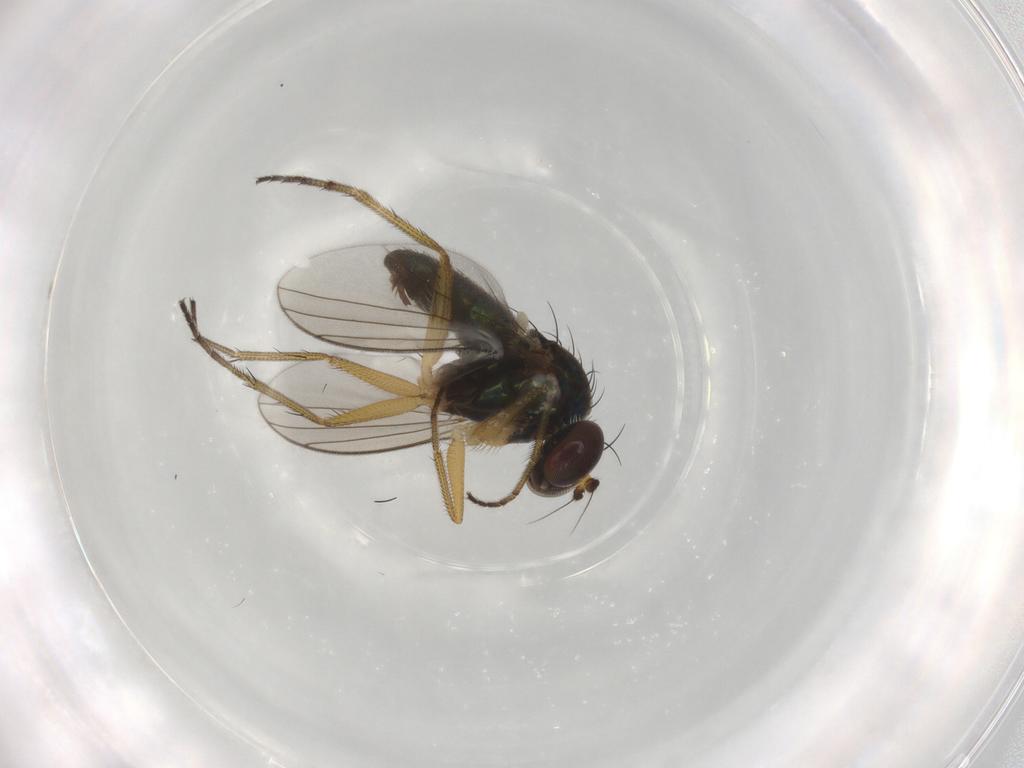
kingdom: Animalia
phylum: Arthropoda
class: Insecta
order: Diptera
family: Dolichopodidae
